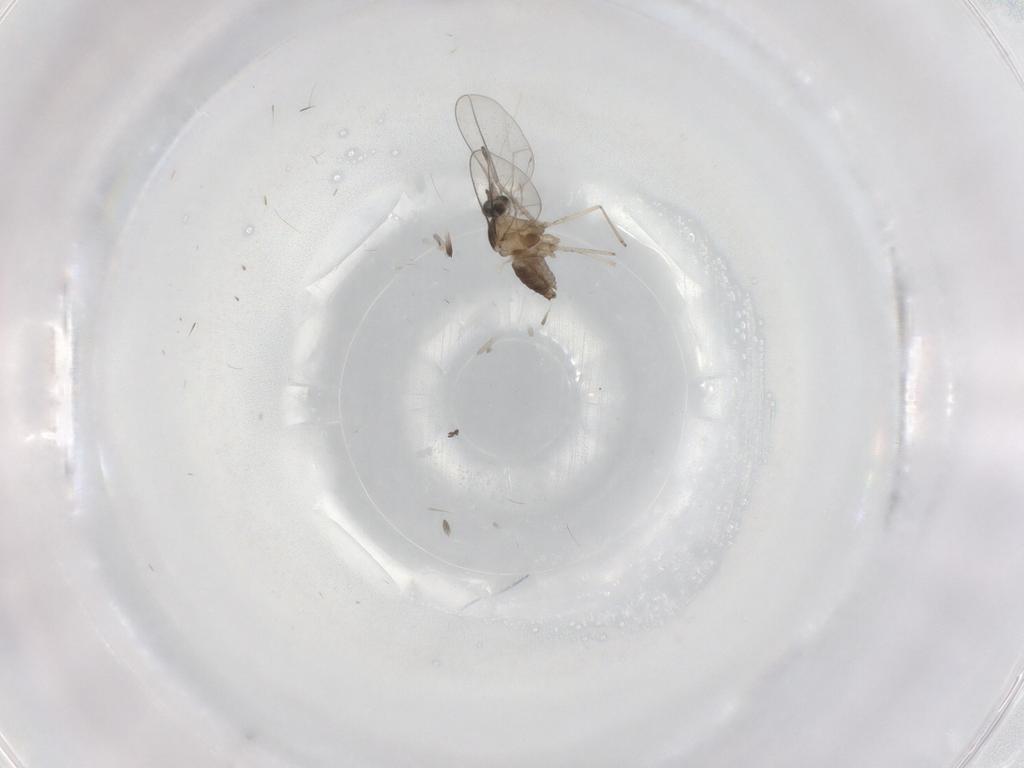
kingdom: Animalia
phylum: Arthropoda
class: Insecta
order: Diptera
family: Cecidomyiidae
